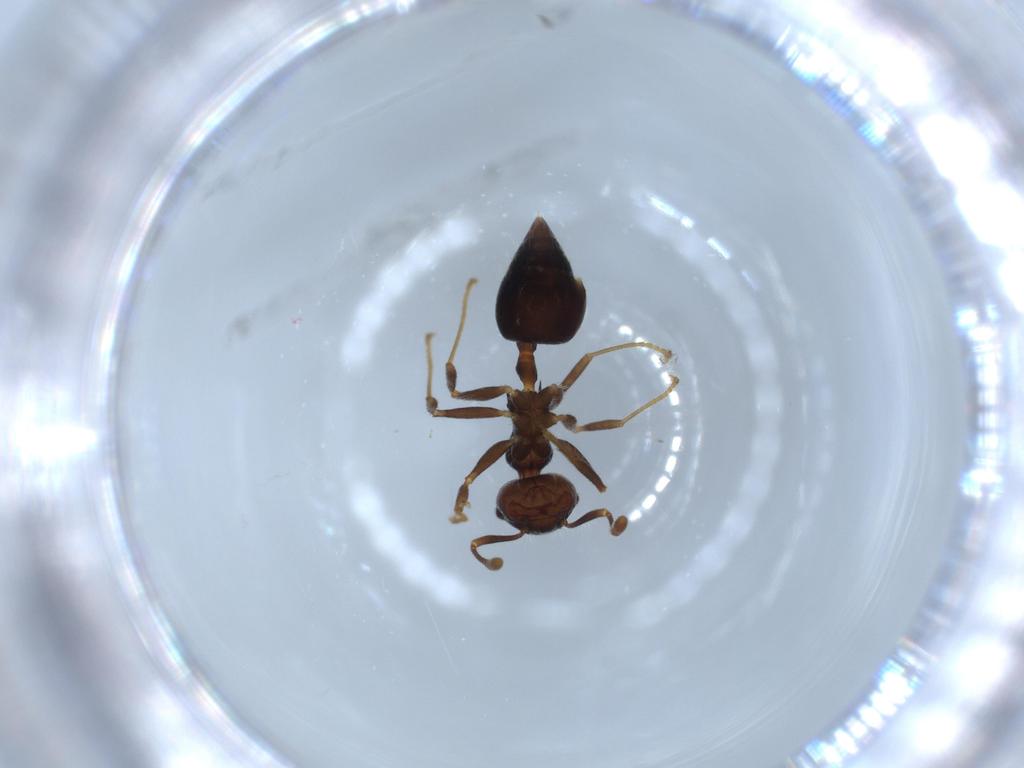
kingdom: Animalia
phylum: Arthropoda
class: Insecta
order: Hymenoptera
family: Formicidae
